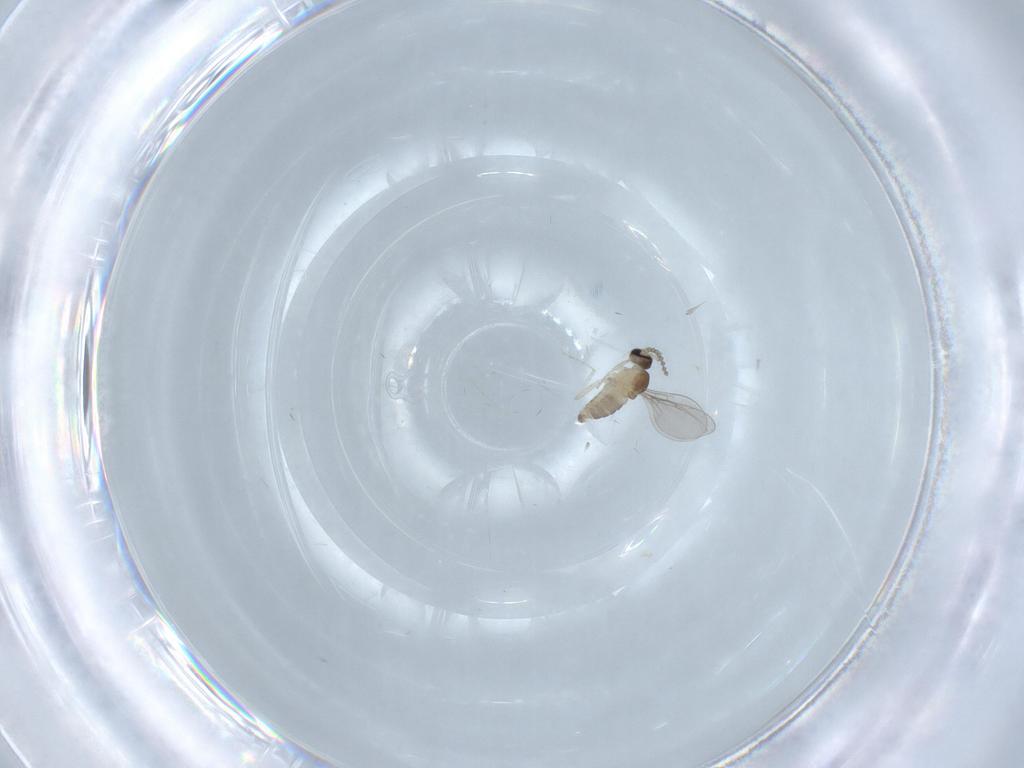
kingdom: Animalia
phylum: Arthropoda
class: Insecta
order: Diptera
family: Cecidomyiidae
